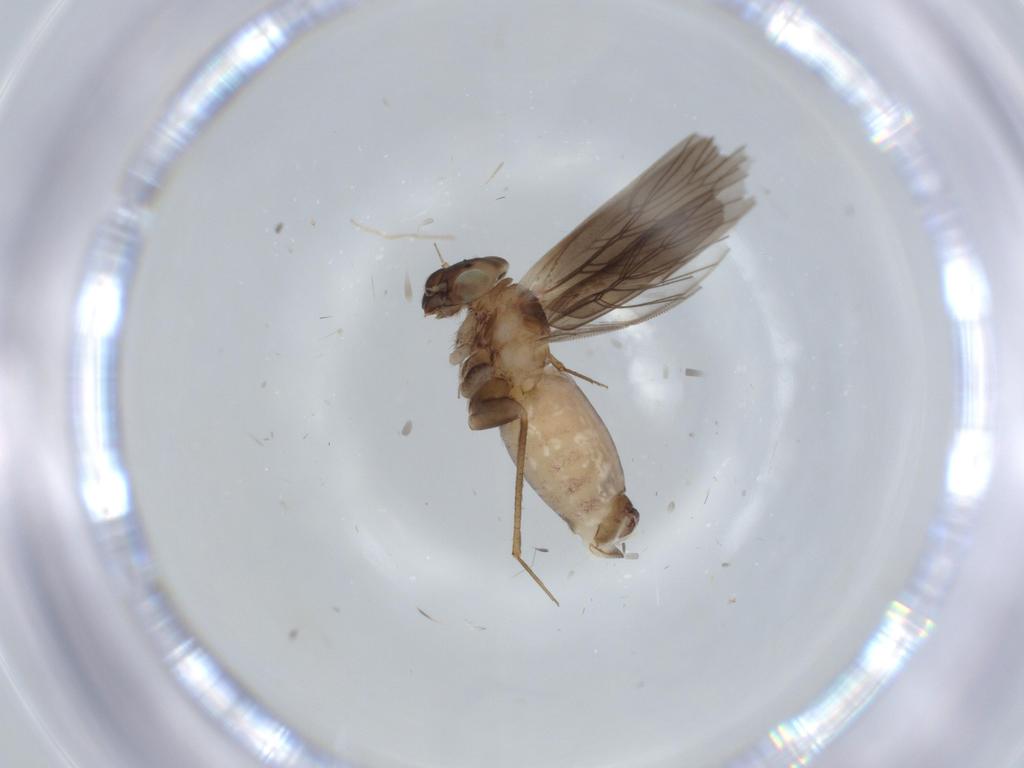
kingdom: Animalia
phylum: Arthropoda
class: Insecta
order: Psocodea
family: Lepidopsocidae
